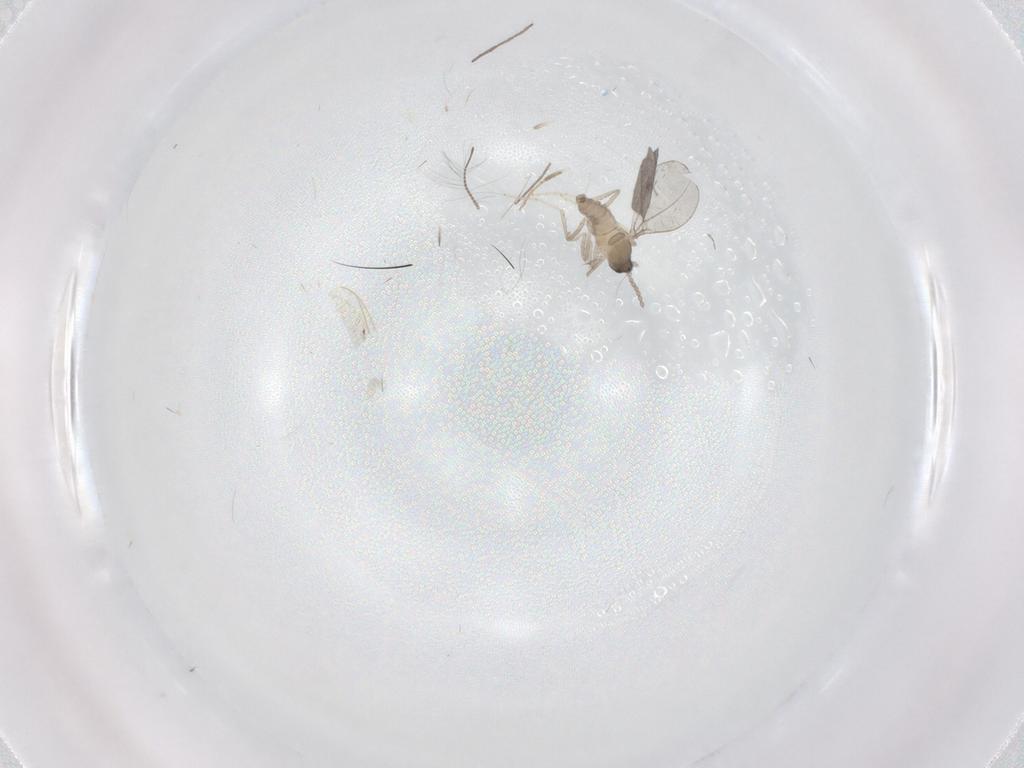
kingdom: Animalia
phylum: Arthropoda
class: Insecta
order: Diptera
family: Cecidomyiidae
